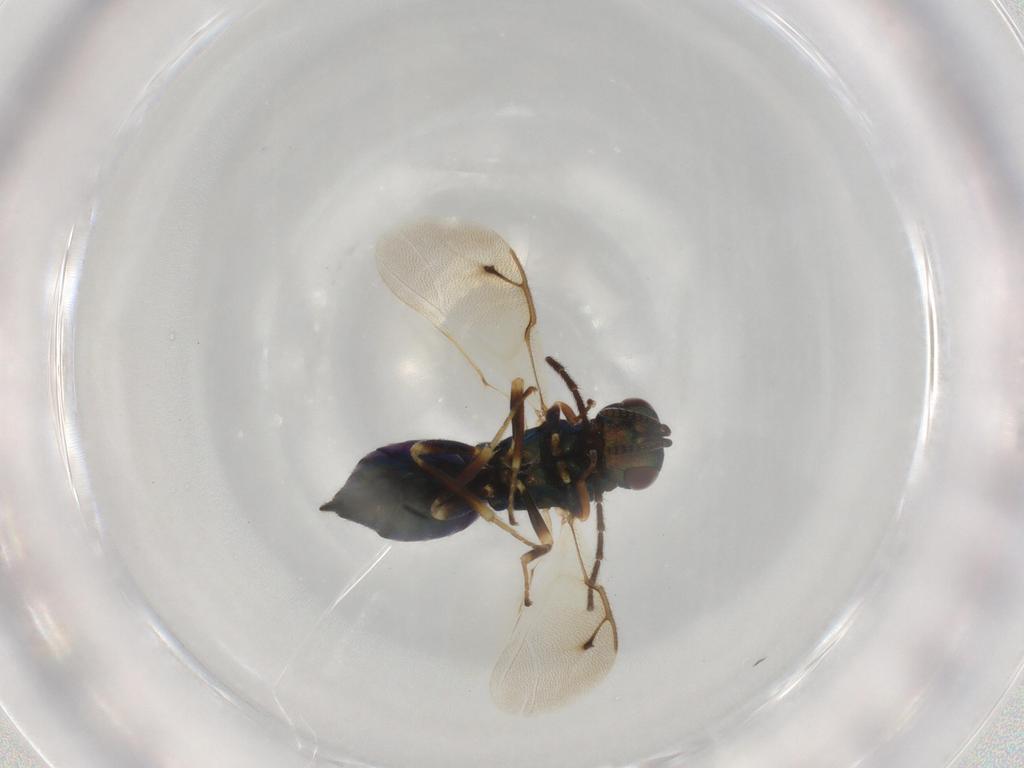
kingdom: Animalia
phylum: Arthropoda
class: Insecta
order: Hymenoptera
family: Pteromalidae
